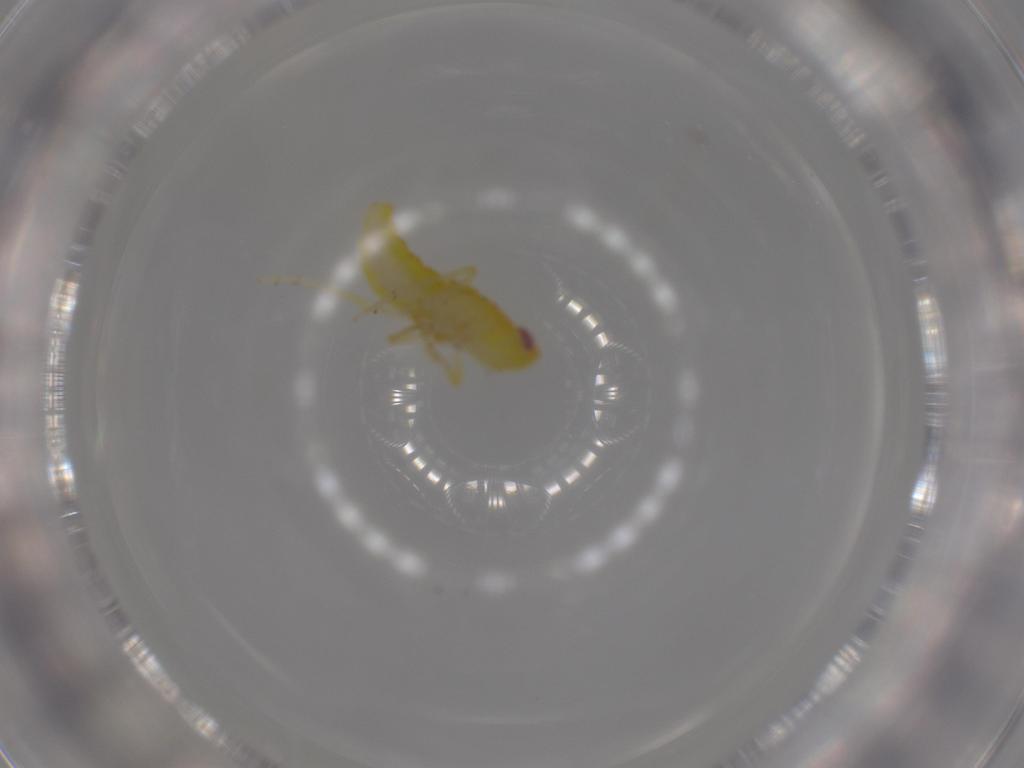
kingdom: Animalia
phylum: Arthropoda
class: Insecta
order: Hemiptera
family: Tropiduchidae
